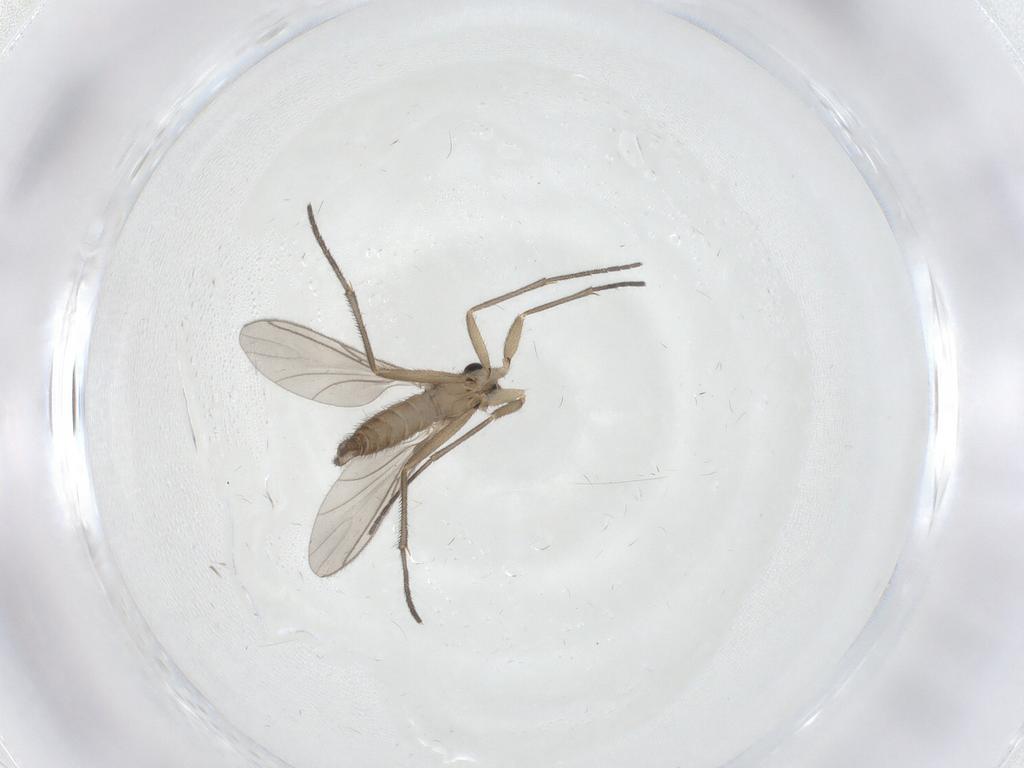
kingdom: Animalia
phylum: Arthropoda
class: Insecta
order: Diptera
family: Sciaridae
